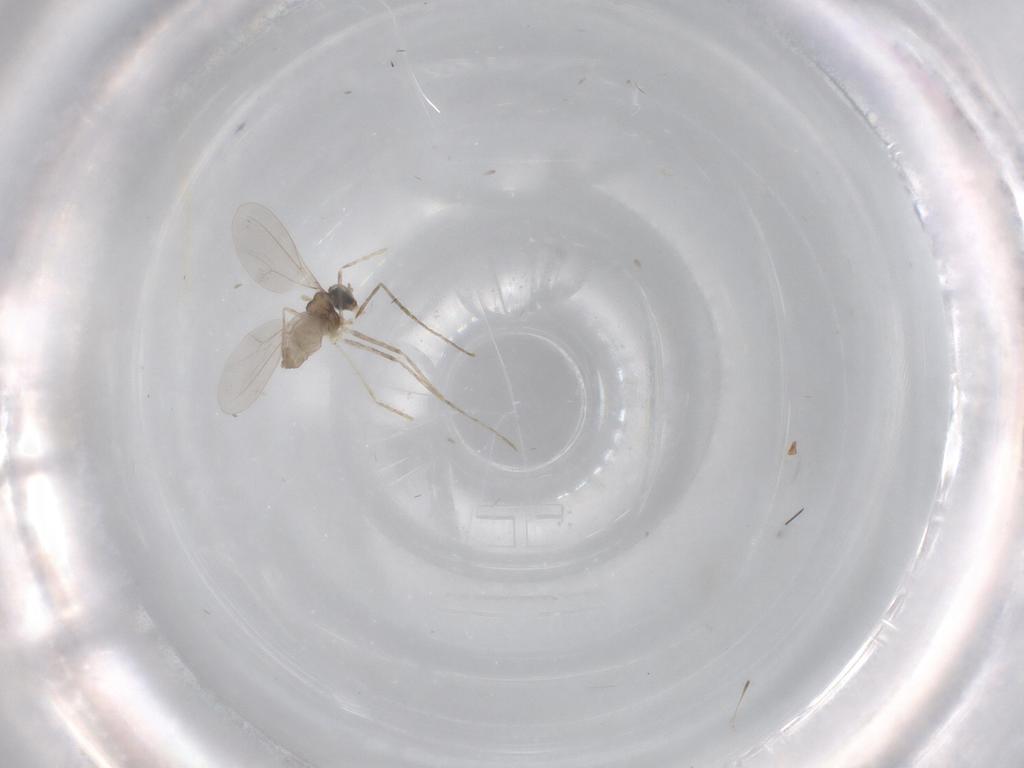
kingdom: Animalia
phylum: Arthropoda
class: Insecta
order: Diptera
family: Cecidomyiidae
